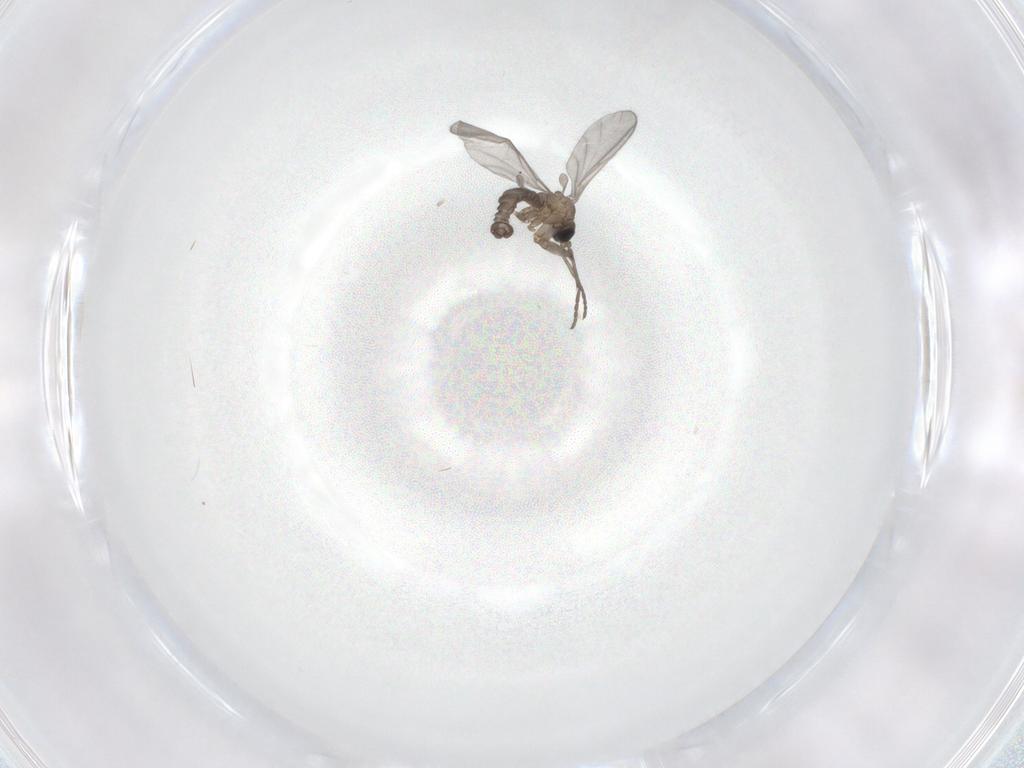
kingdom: Animalia
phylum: Arthropoda
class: Insecta
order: Diptera
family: Sciaridae
